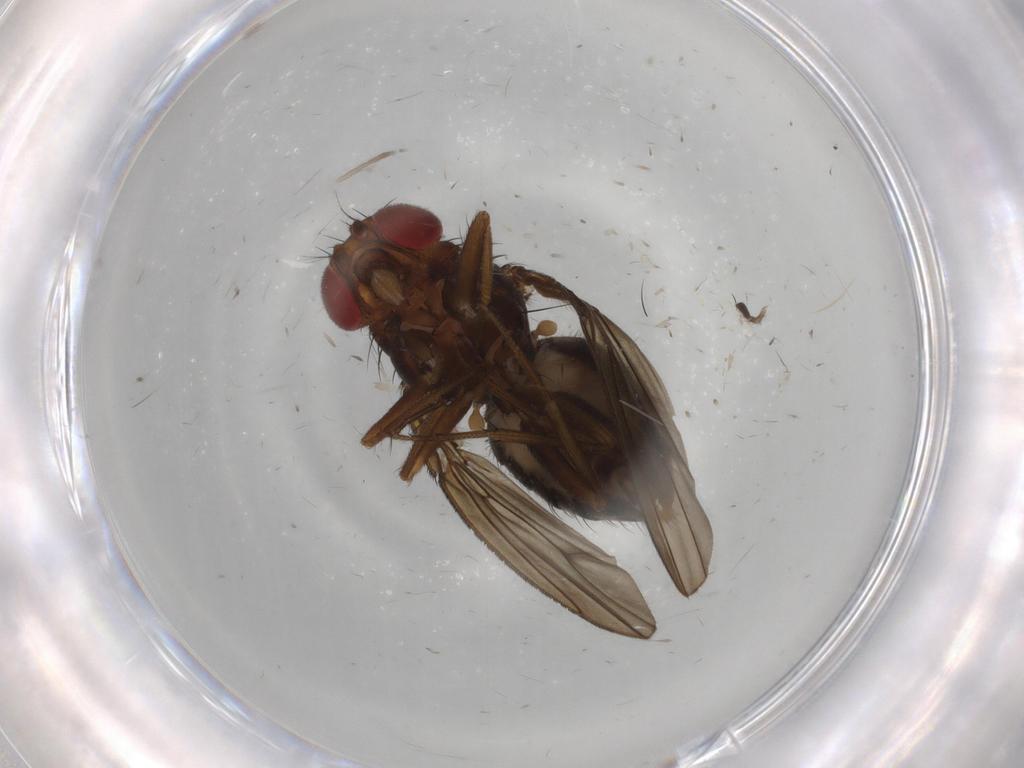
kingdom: Animalia
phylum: Arthropoda
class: Insecta
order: Diptera
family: Drosophilidae
